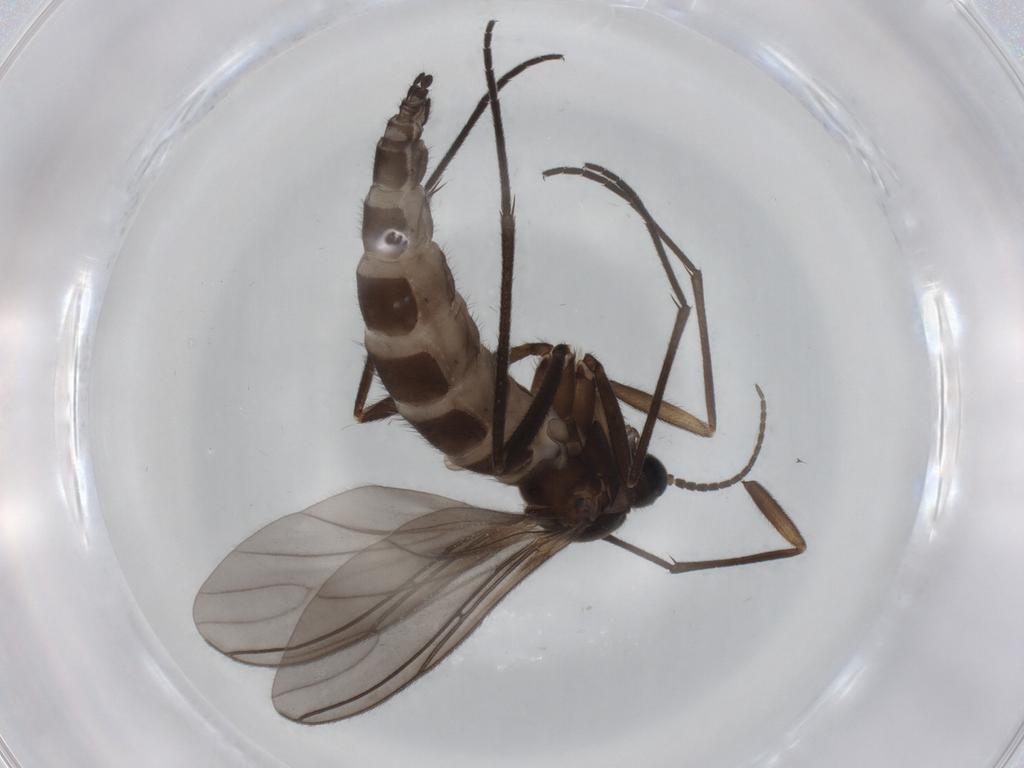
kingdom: Animalia
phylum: Arthropoda
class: Insecta
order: Diptera
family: Sciaridae
